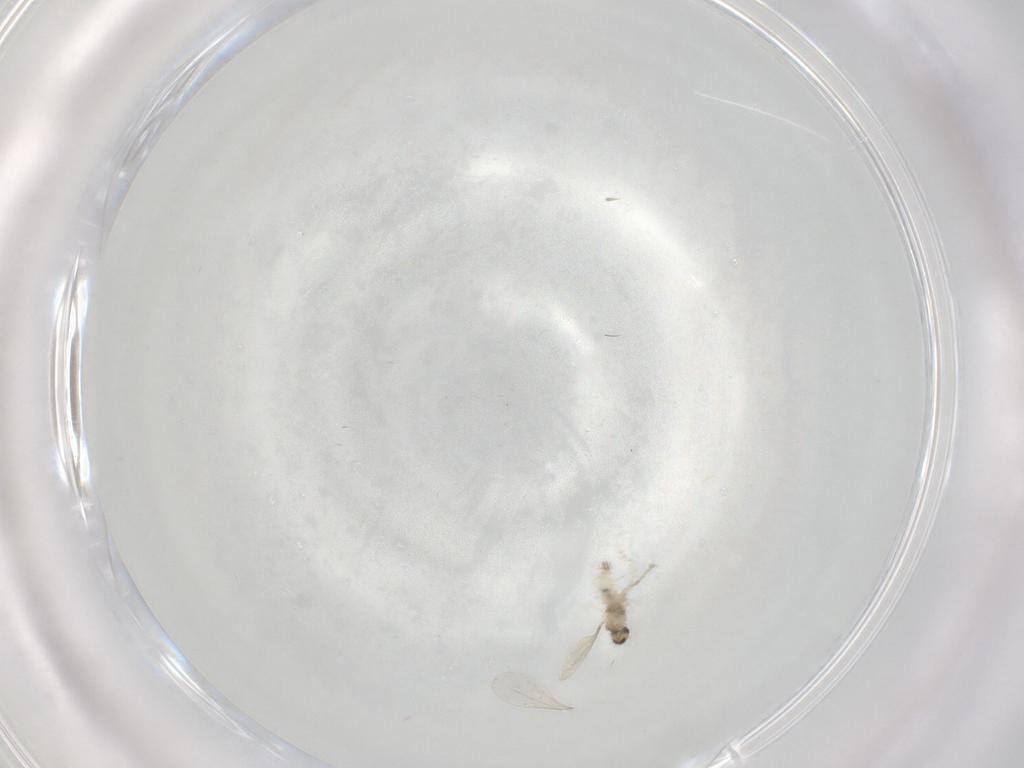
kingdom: Animalia
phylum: Arthropoda
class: Insecta
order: Diptera
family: Cecidomyiidae
